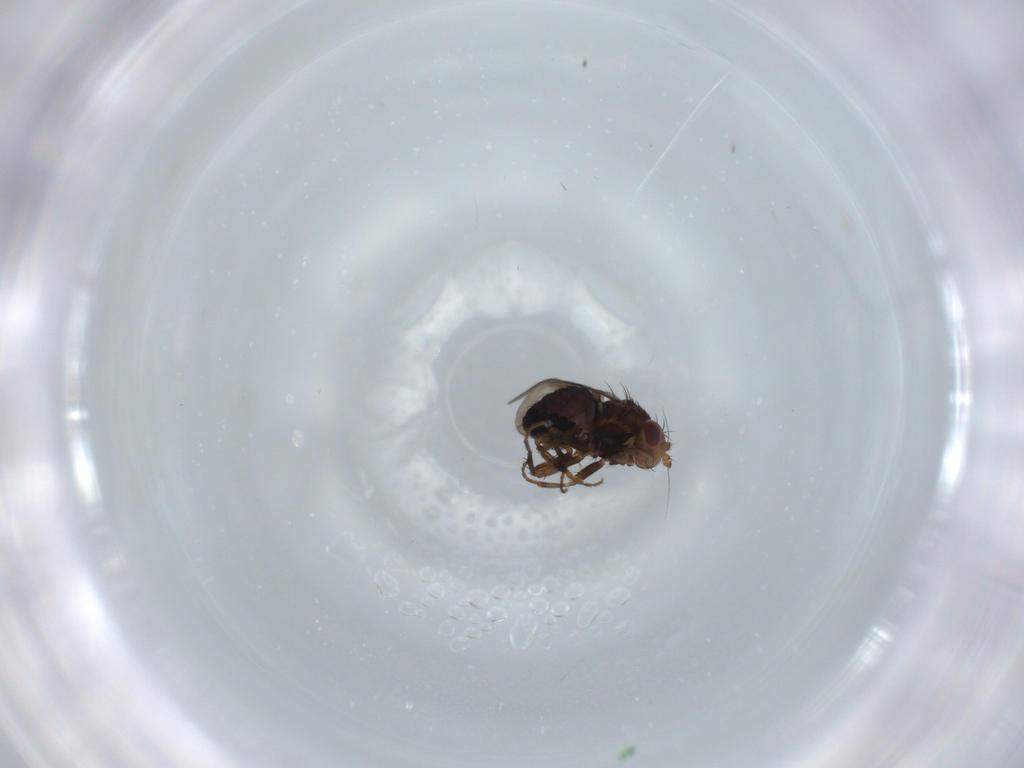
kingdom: Animalia
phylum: Arthropoda
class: Insecta
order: Diptera
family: Sphaeroceridae
